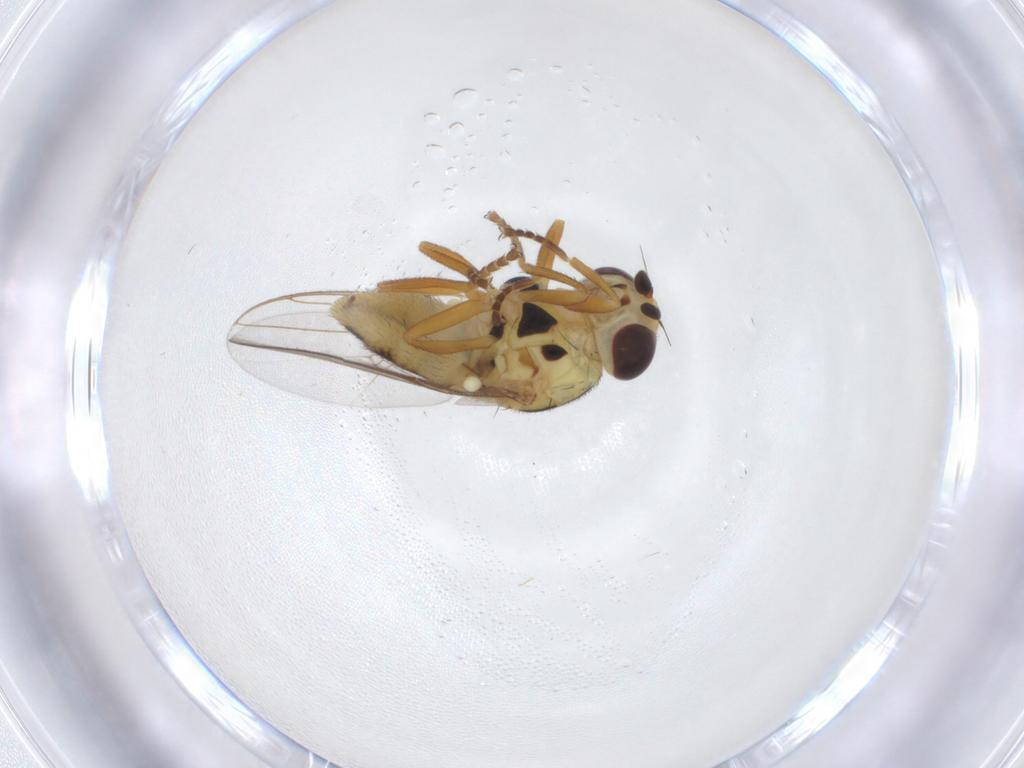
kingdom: Animalia
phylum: Arthropoda
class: Insecta
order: Diptera
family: Chloropidae
